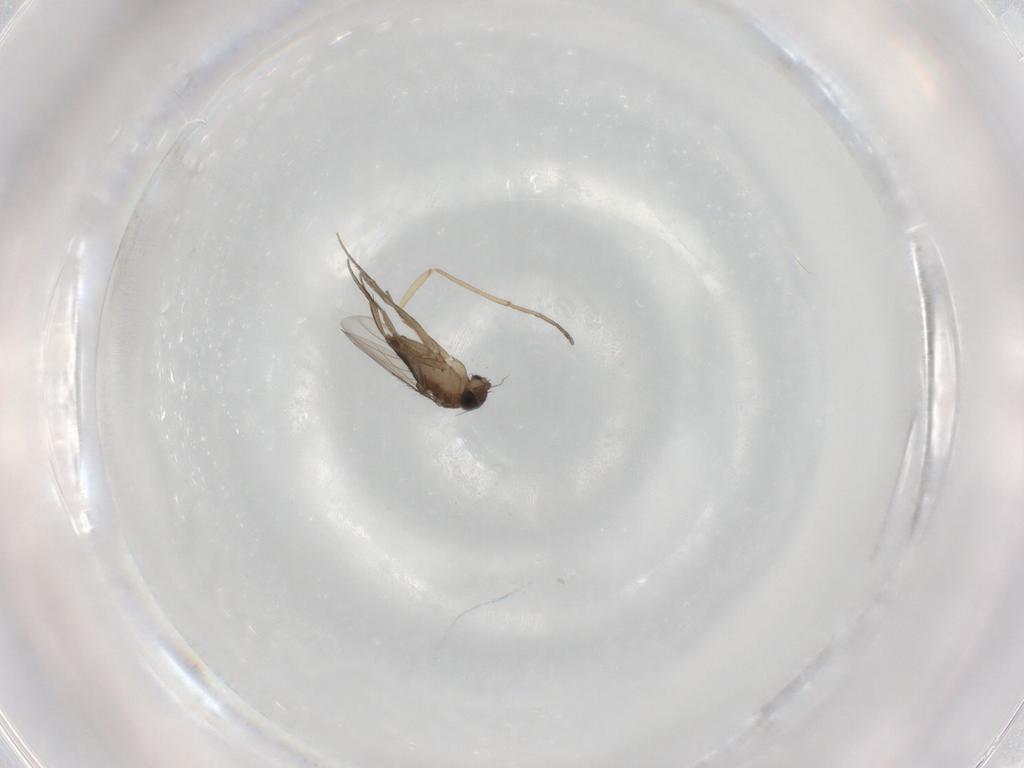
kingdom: Animalia
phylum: Arthropoda
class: Insecta
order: Diptera
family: Phoridae
